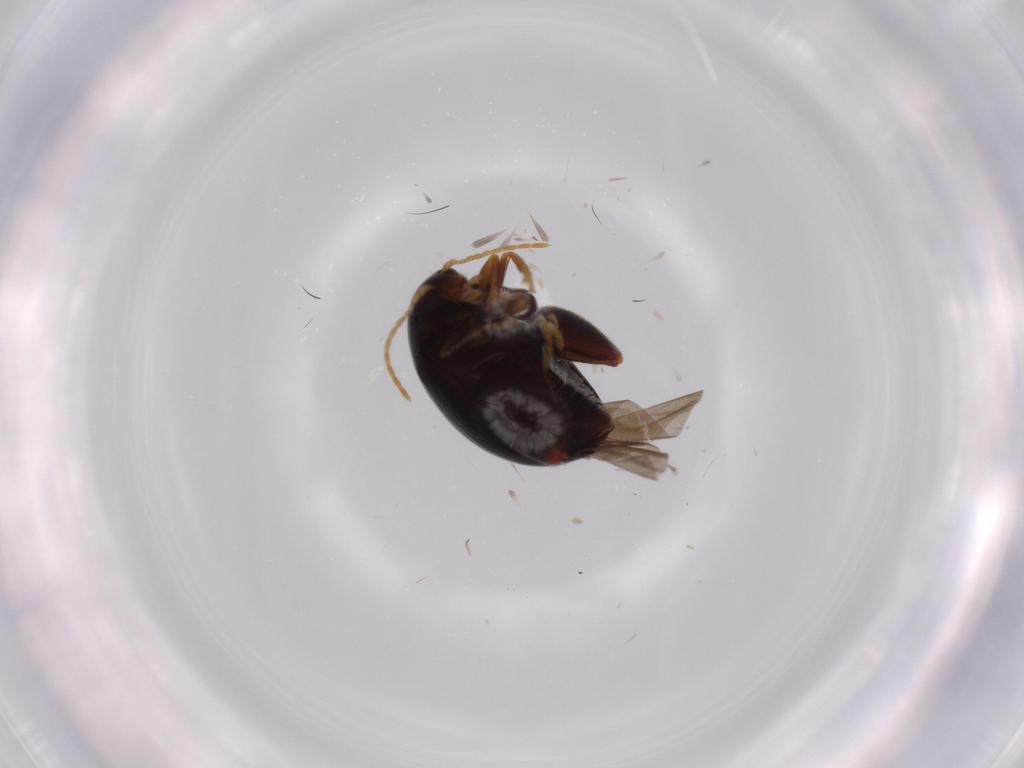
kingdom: Animalia
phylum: Arthropoda
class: Insecta
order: Coleoptera
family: Chrysomelidae
